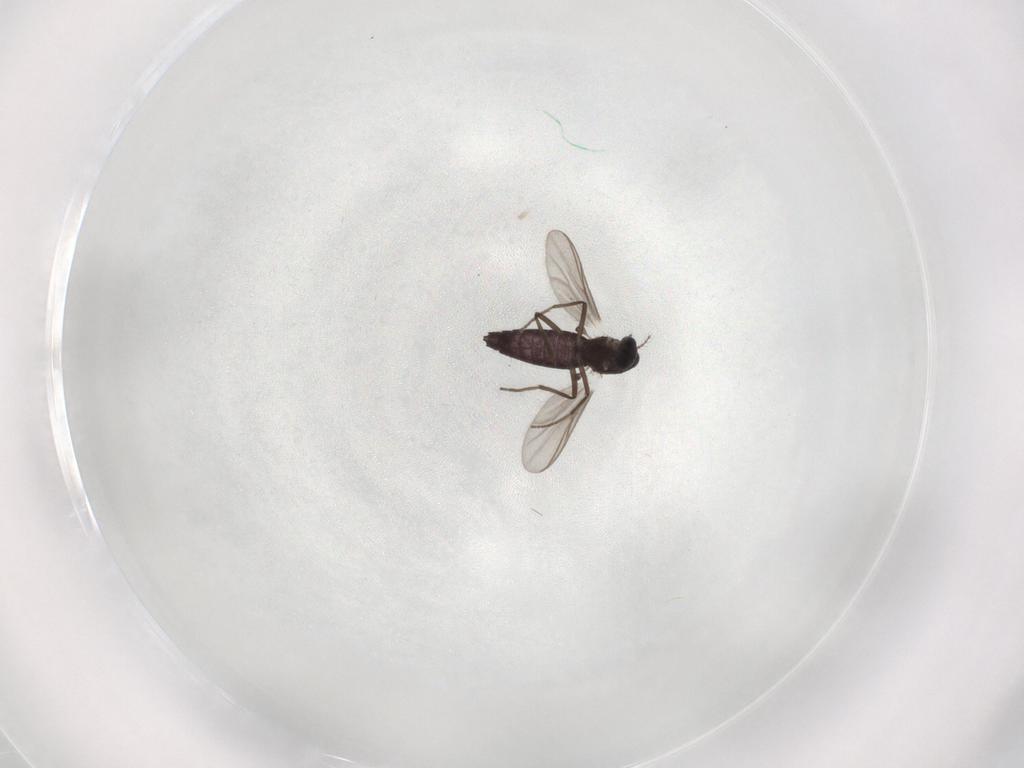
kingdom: Animalia
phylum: Arthropoda
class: Insecta
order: Diptera
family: Chironomidae
